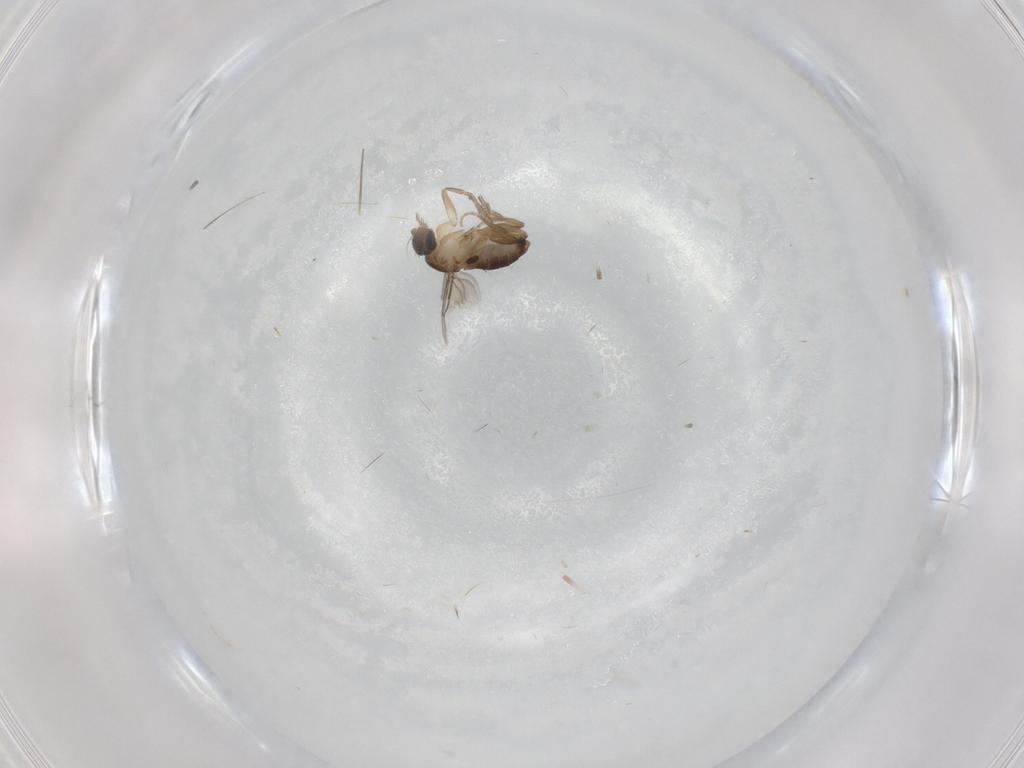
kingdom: Animalia
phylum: Arthropoda
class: Insecta
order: Diptera
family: Phoridae
